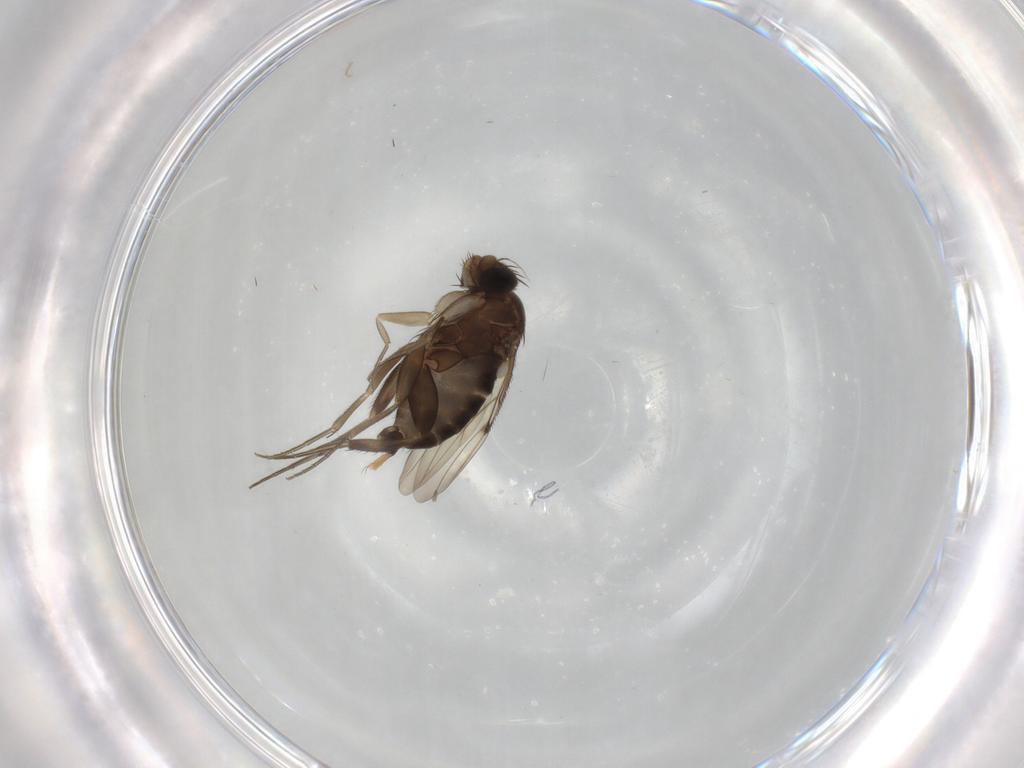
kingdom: Animalia
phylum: Arthropoda
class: Insecta
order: Diptera
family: Phoridae
